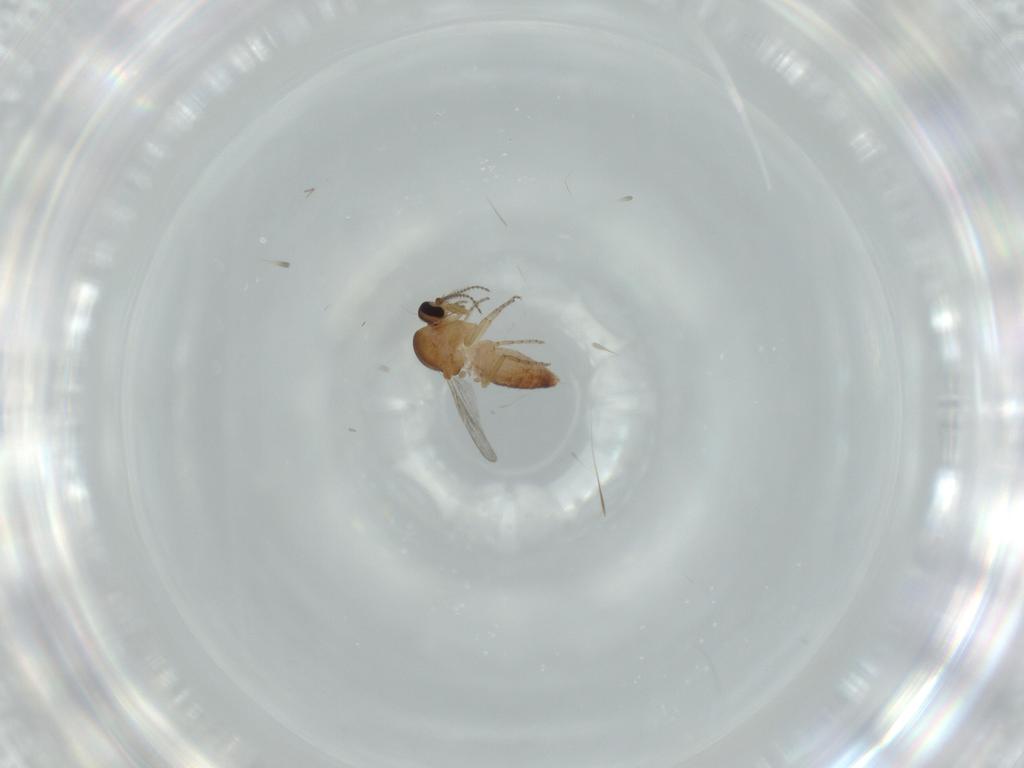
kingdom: Animalia
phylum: Arthropoda
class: Insecta
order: Diptera
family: Ceratopogonidae
